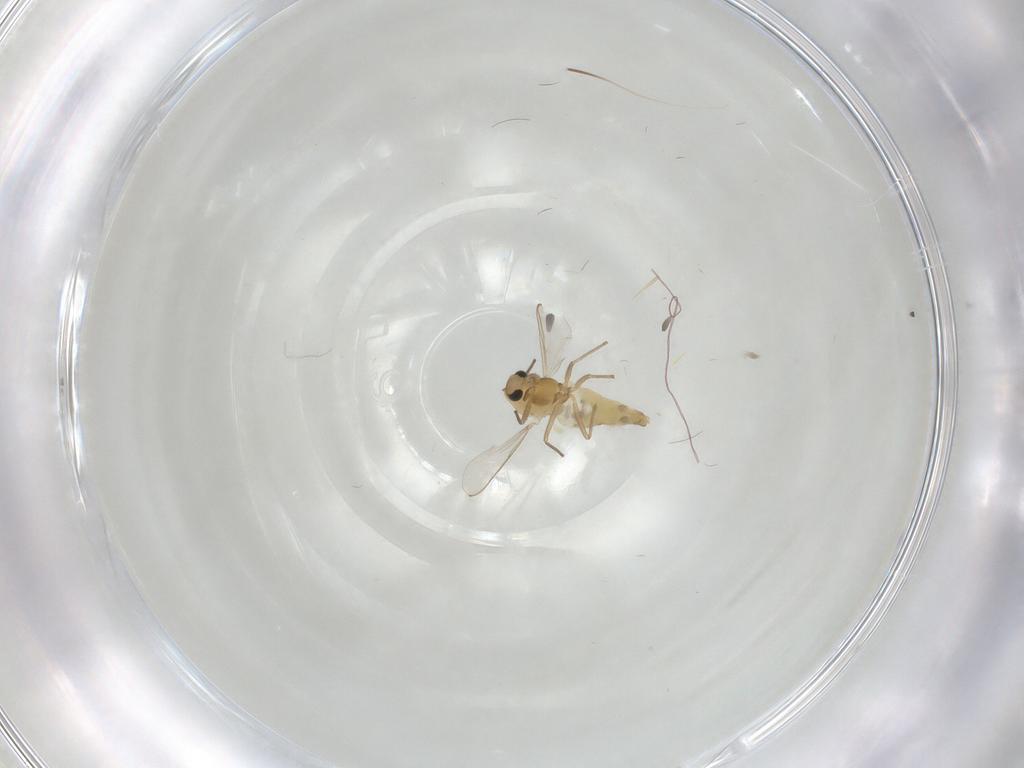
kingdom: Animalia
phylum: Arthropoda
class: Insecta
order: Diptera
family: Chironomidae
